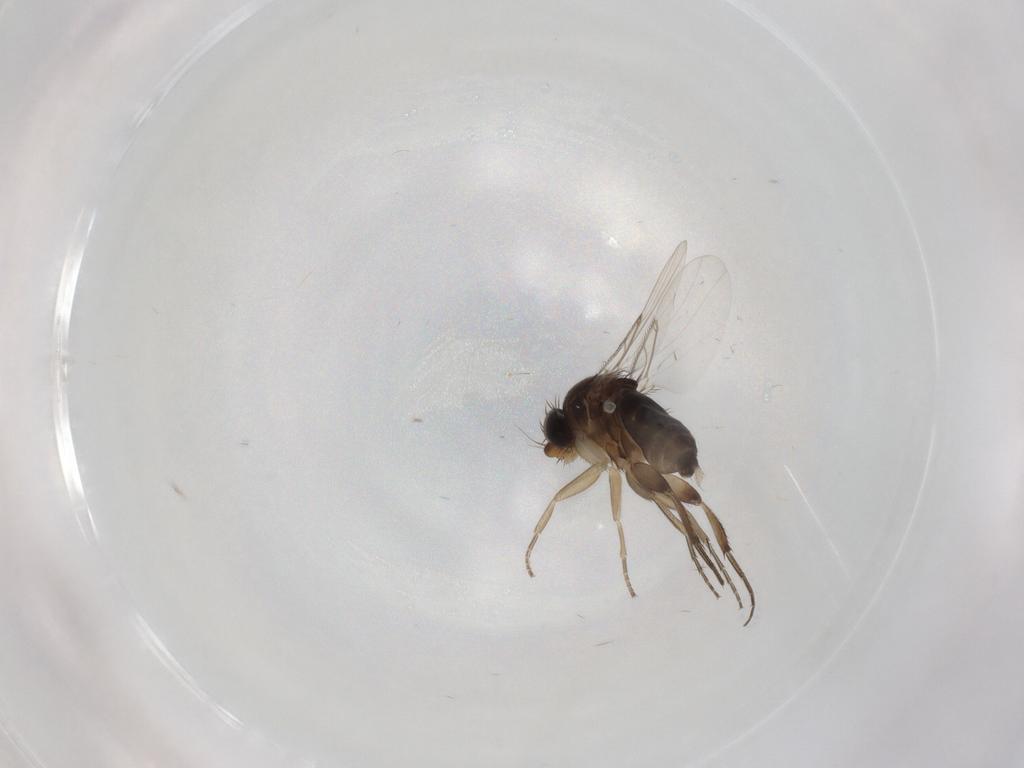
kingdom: Animalia
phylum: Arthropoda
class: Insecta
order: Diptera
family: Phoridae
